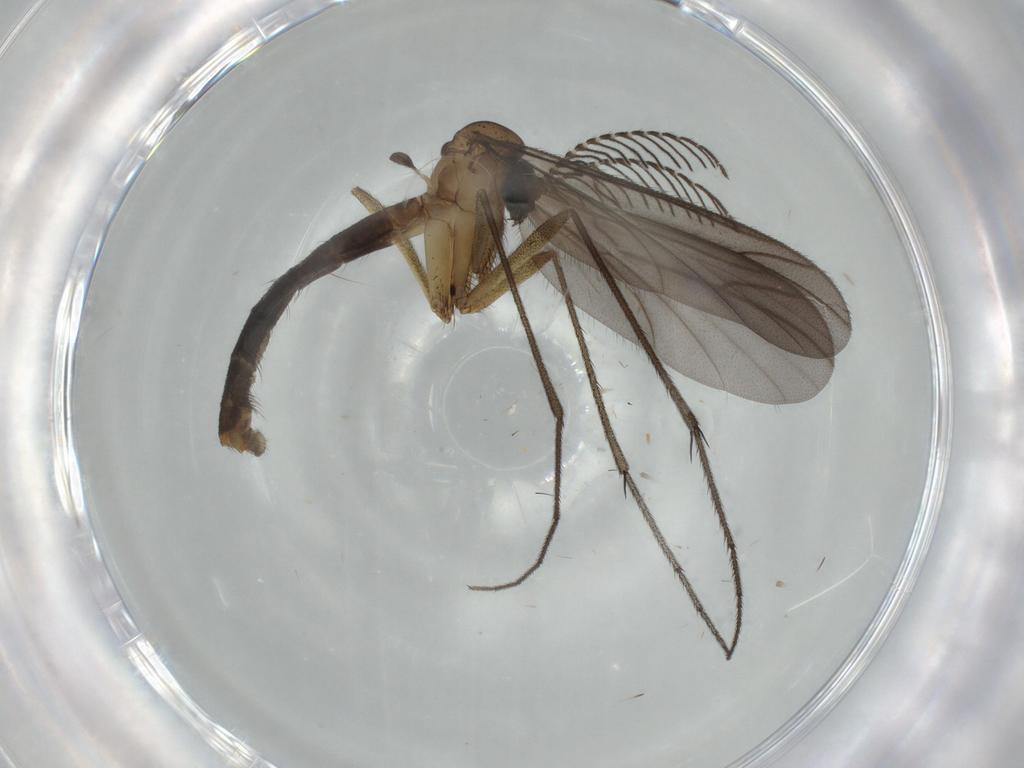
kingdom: Animalia
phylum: Arthropoda
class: Insecta
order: Diptera
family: Ditomyiidae
